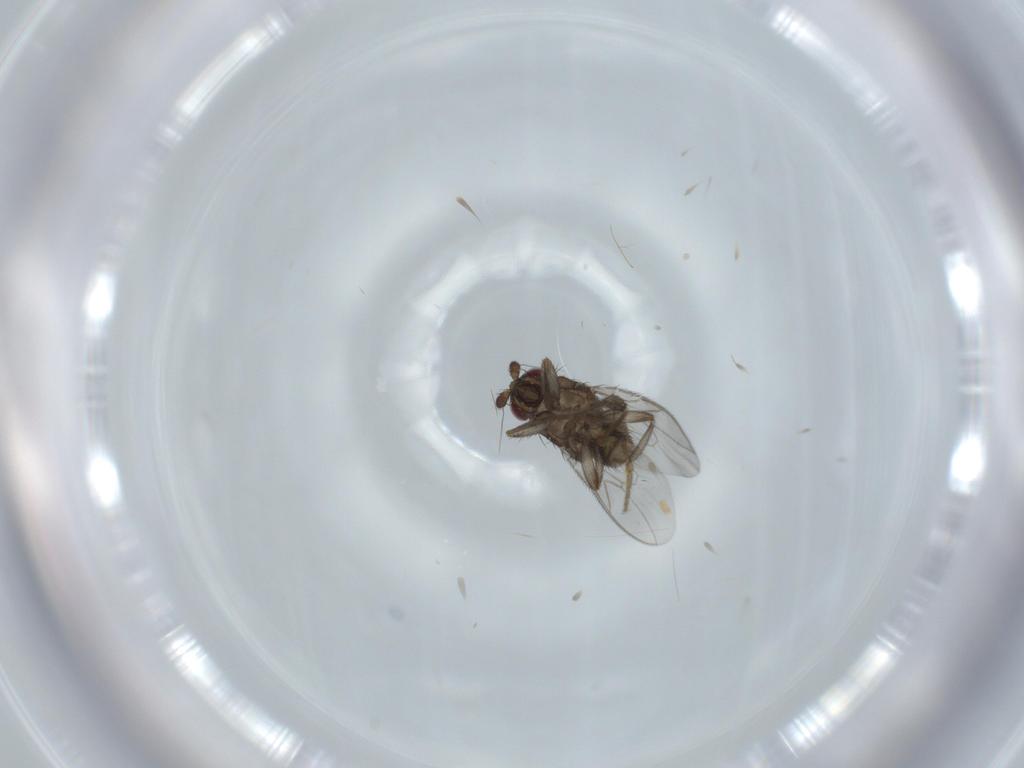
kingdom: Animalia
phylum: Arthropoda
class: Insecta
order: Diptera
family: Sphaeroceridae
